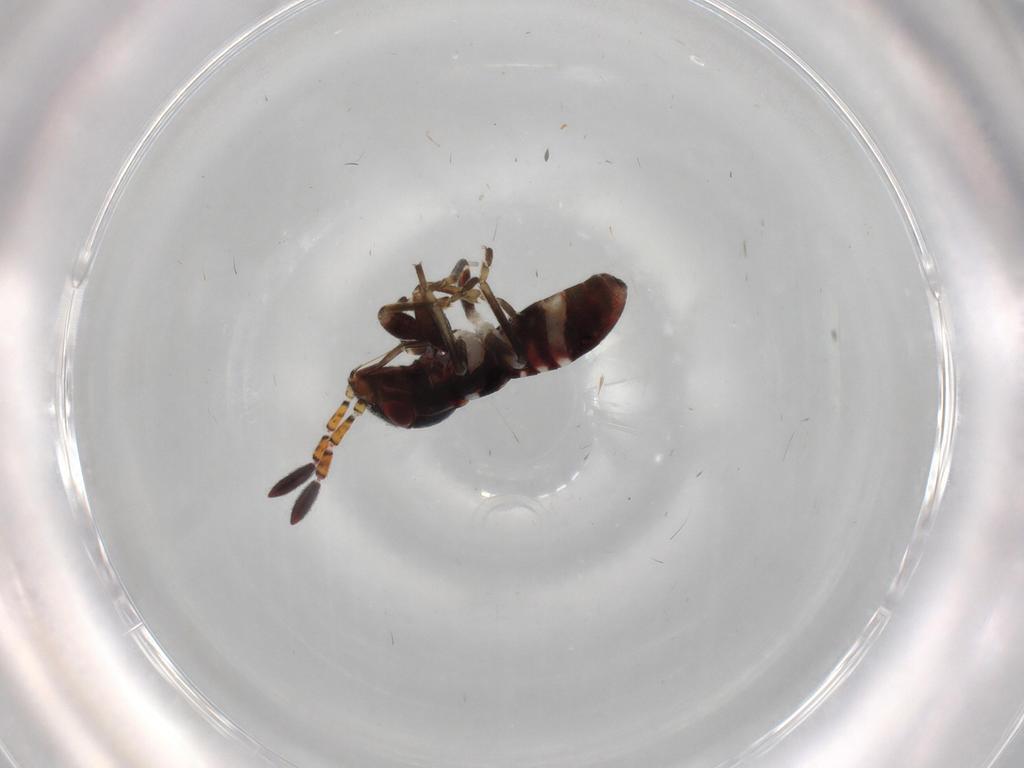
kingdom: Animalia
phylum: Arthropoda
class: Insecta
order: Hemiptera
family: Rhyparochromidae
